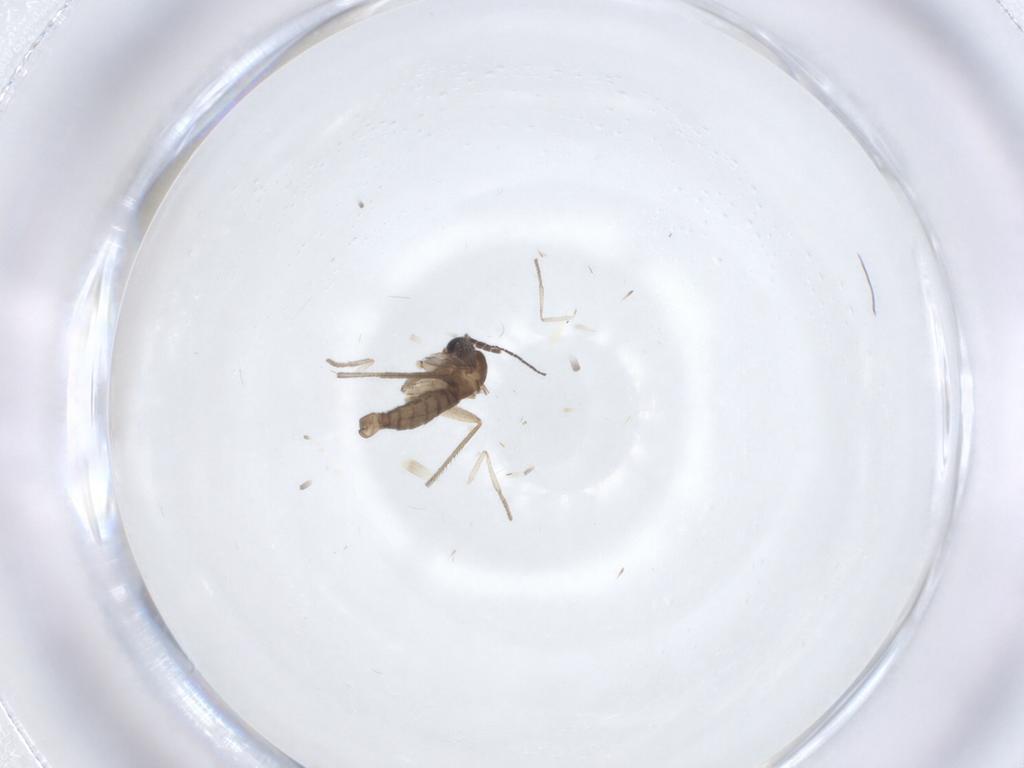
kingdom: Animalia
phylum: Arthropoda
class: Insecta
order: Diptera
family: Sciaridae
